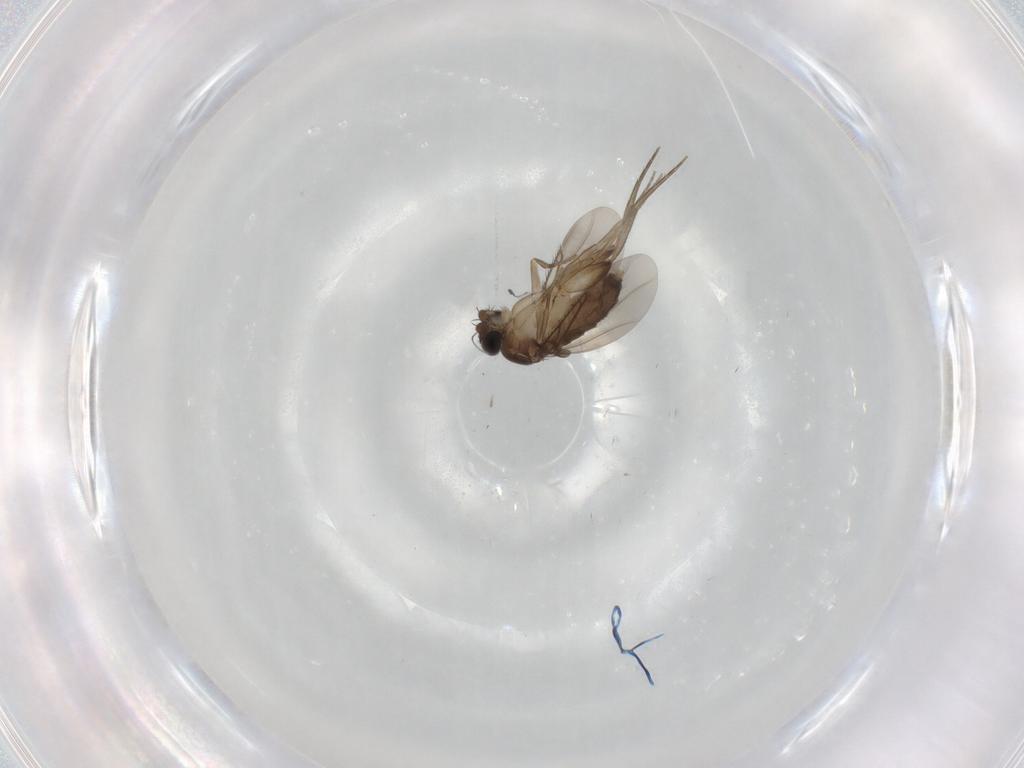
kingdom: Animalia
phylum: Arthropoda
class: Insecta
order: Diptera
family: Phoridae
